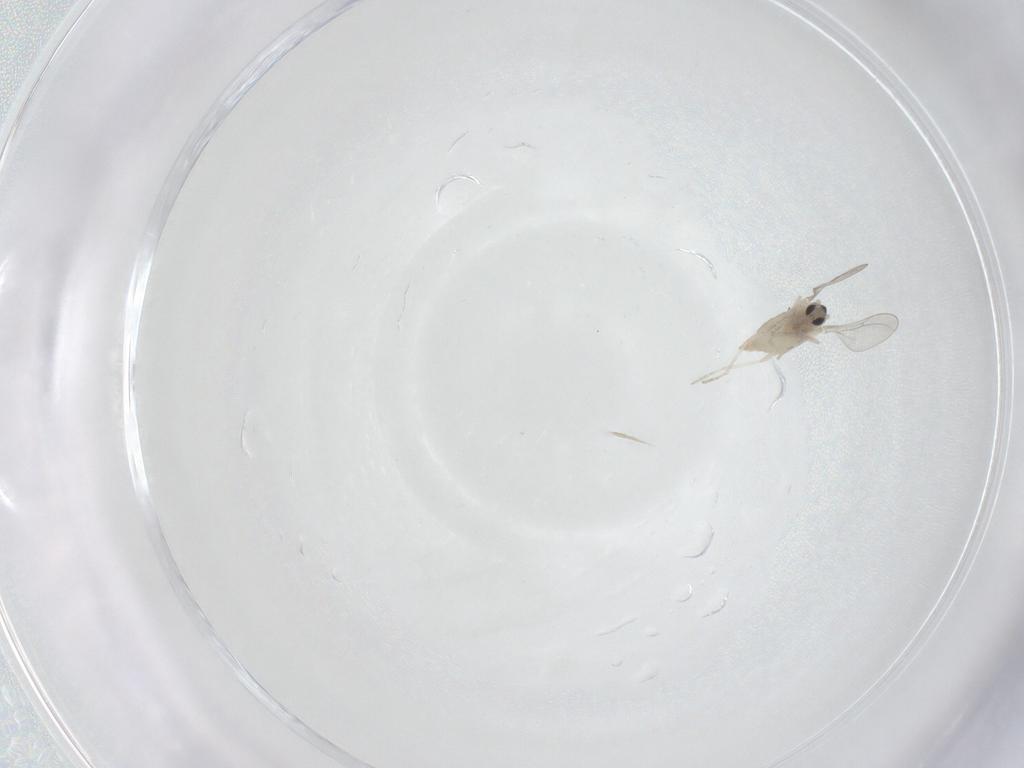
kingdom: Animalia
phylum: Arthropoda
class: Insecta
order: Diptera
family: Cecidomyiidae
